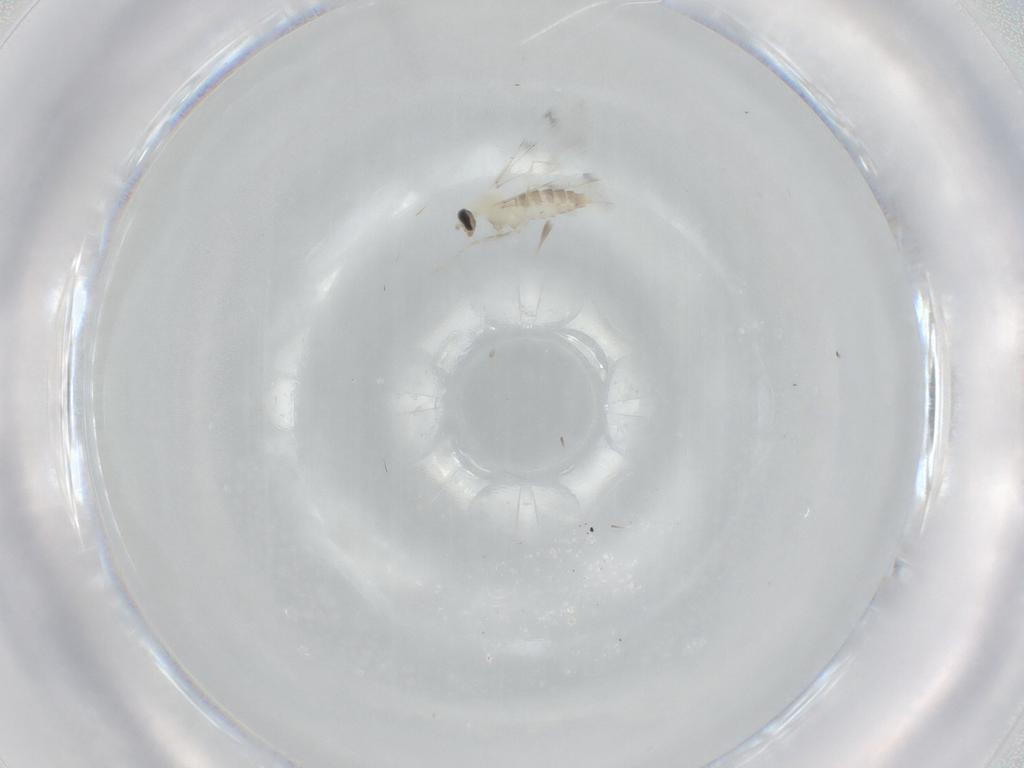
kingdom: Animalia
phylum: Arthropoda
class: Insecta
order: Diptera
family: Cecidomyiidae
